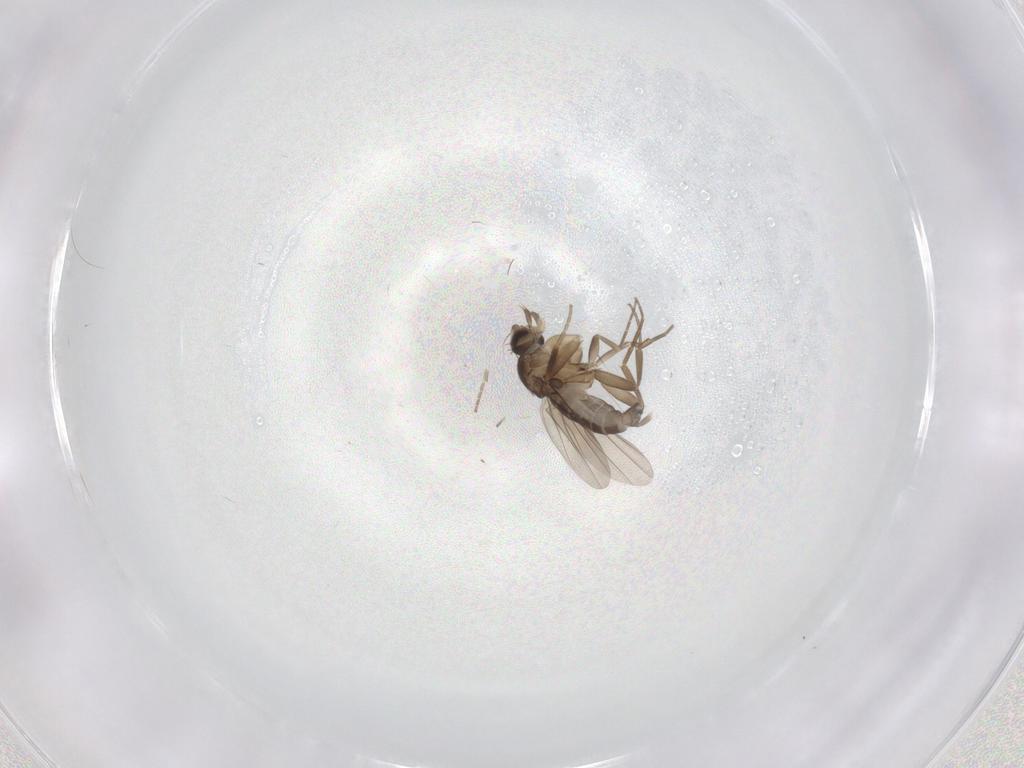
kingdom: Animalia
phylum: Arthropoda
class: Insecta
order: Diptera
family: Phoridae
